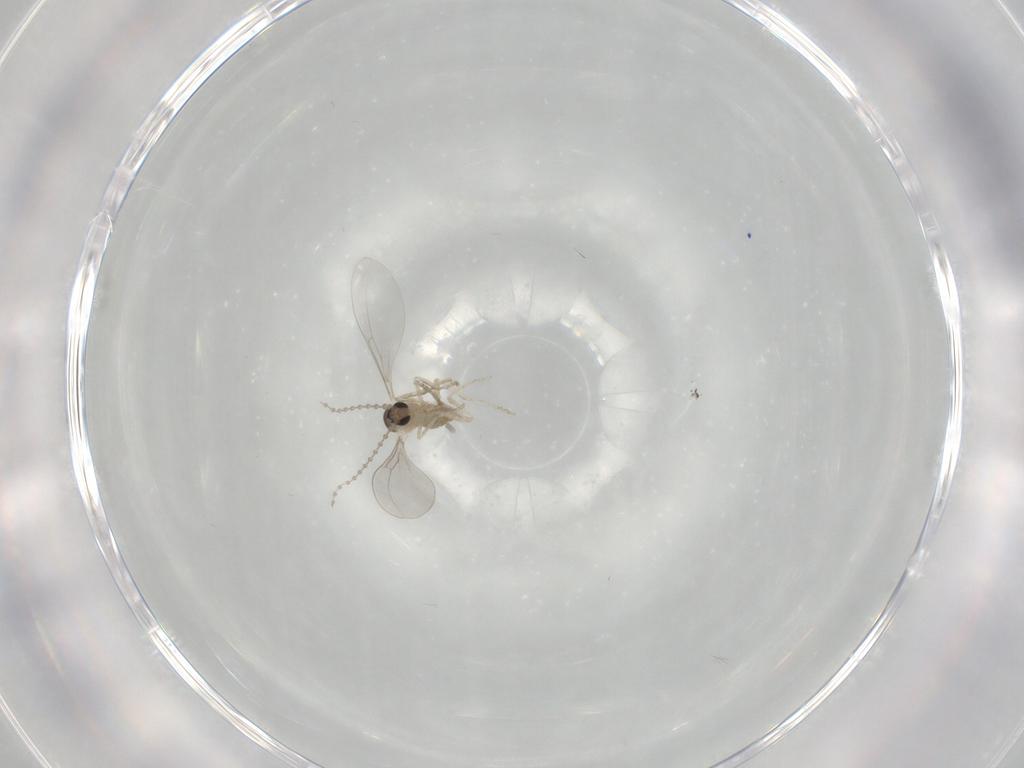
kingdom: Animalia
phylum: Arthropoda
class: Insecta
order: Diptera
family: Cecidomyiidae
